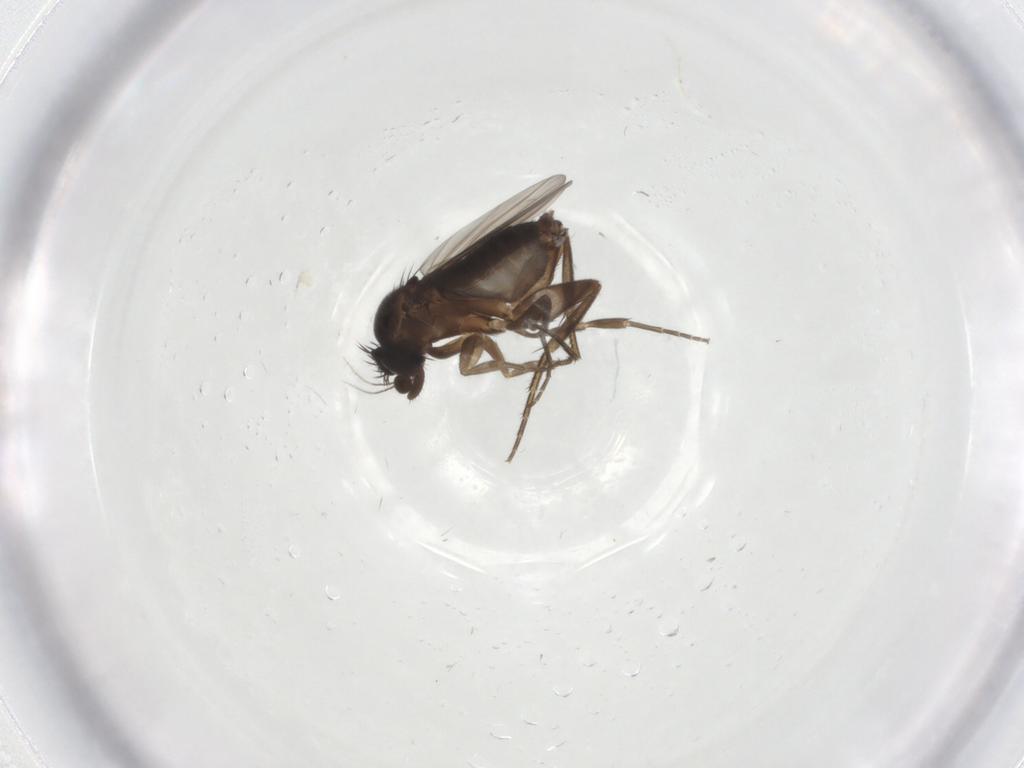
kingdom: Animalia
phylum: Arthropoda
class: Insecta
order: Diptera
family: Phoridae
